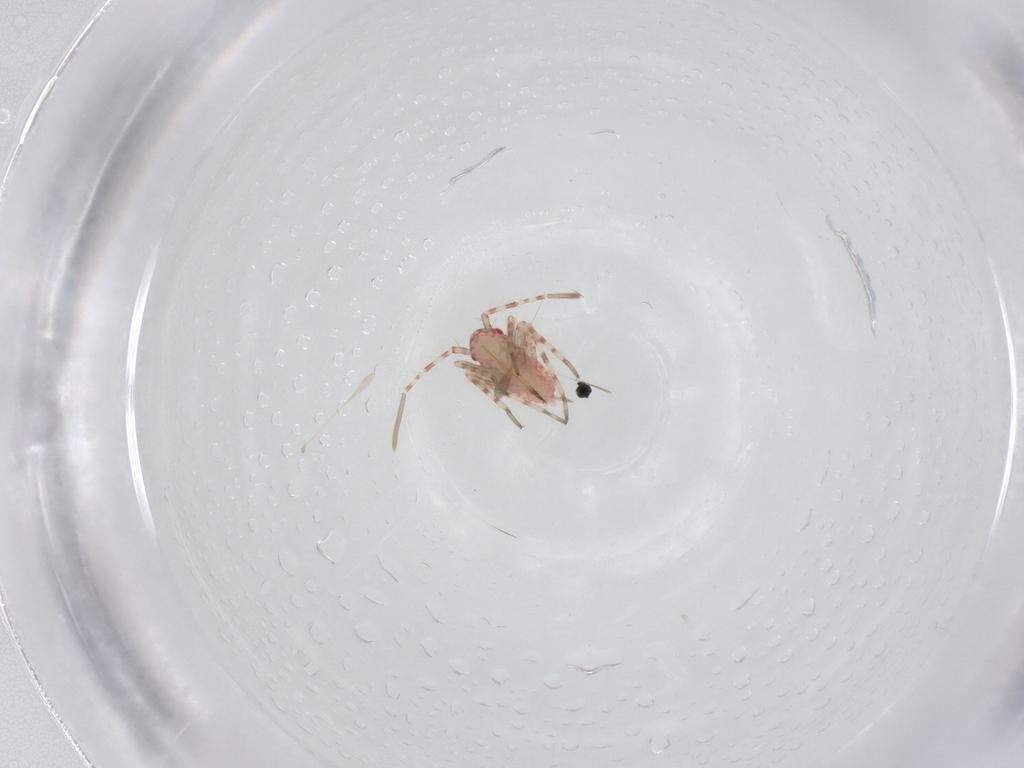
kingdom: Animalia
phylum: Arthropoda
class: Insecta
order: Hemiptera
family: Miridae
